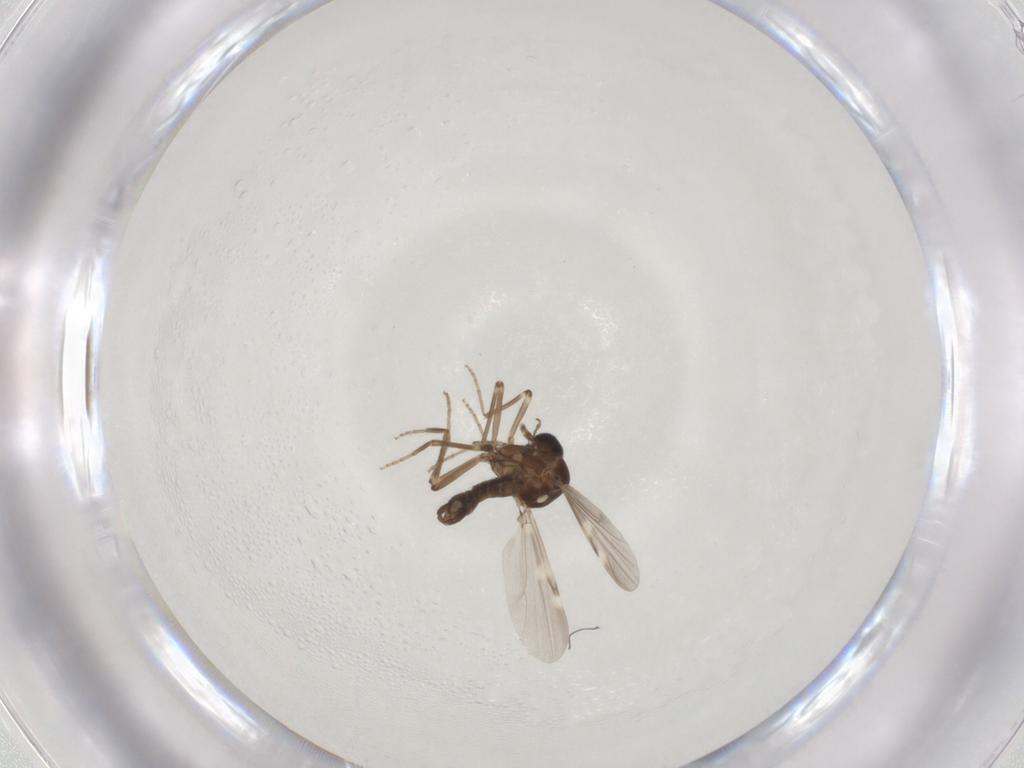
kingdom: Animalia
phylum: Arthropoda
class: Insecta
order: Diptera
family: Ceratopogonidae
